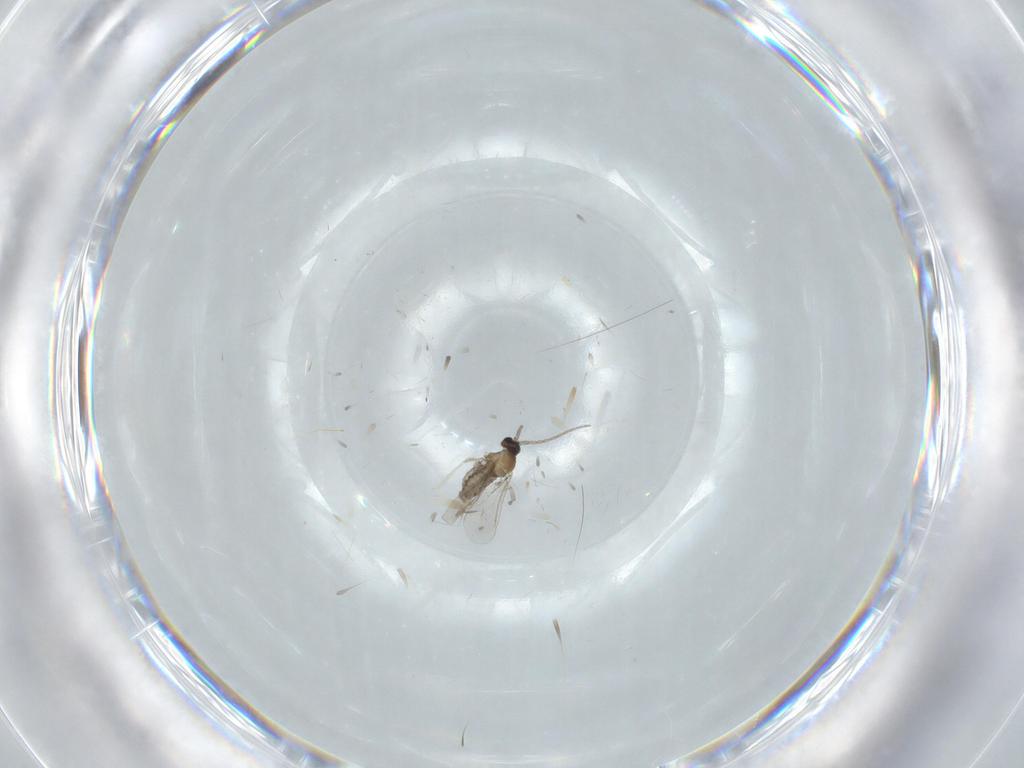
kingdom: Animalia
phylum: Arthropoda
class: Insecta
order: Diptera
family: Cecidomyiidae
